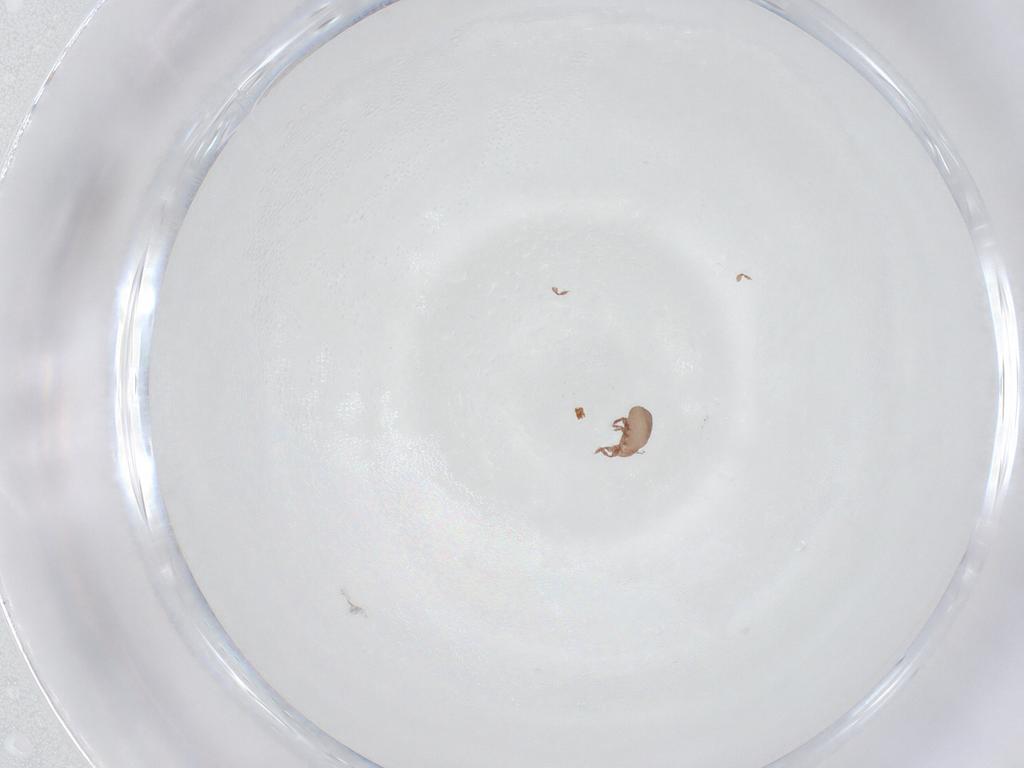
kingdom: Animalia
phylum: Arthropoda
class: Arachnida
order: Sarcoptiformes
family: Eremaeidae
